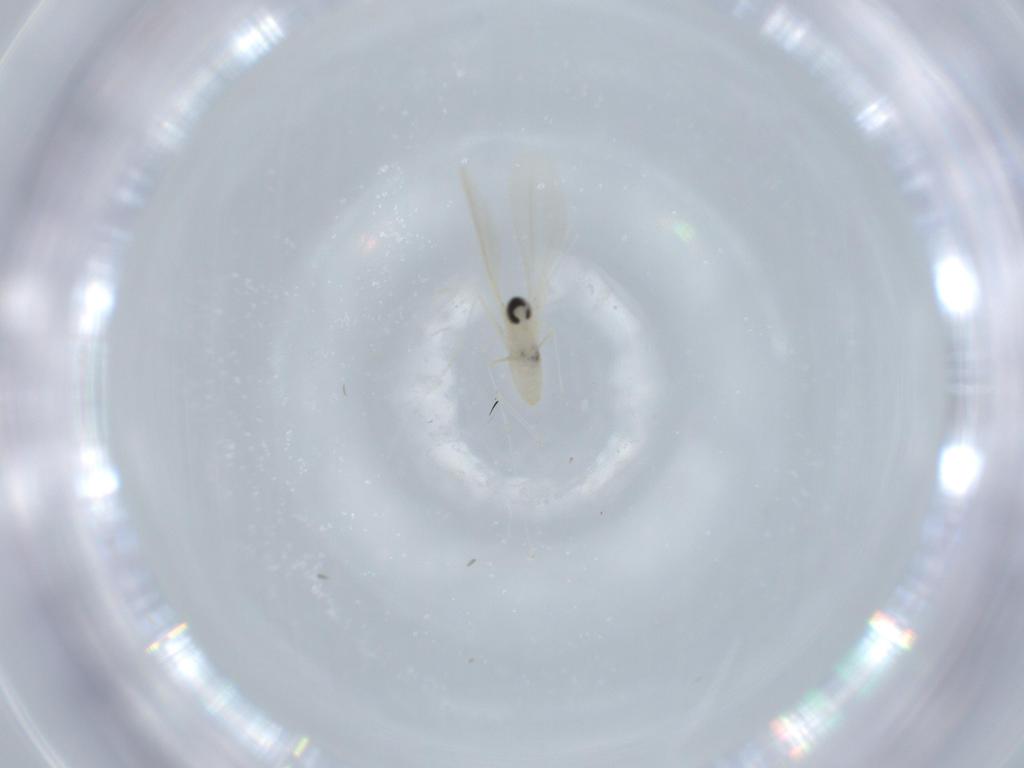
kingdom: Animalia
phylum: Arthropoda
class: Insecta
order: Diptera
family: Cecidomyiidae
